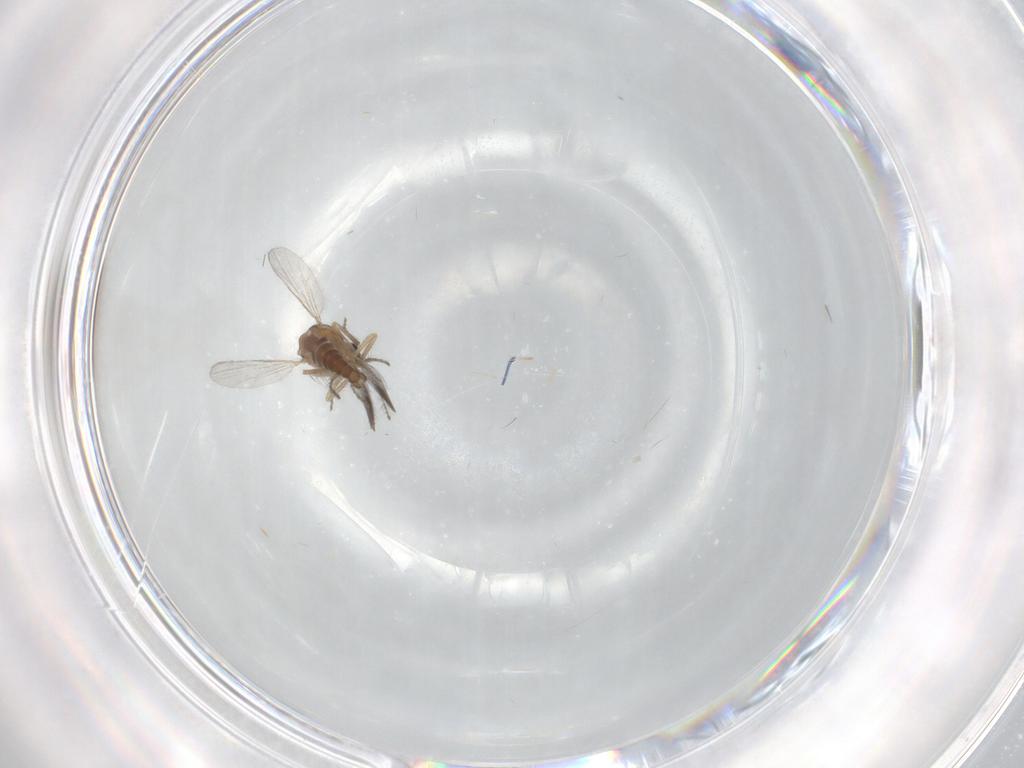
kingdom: Animalia
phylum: Arthropoda
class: Insecta
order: Diptera
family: Ceratopogonidae
